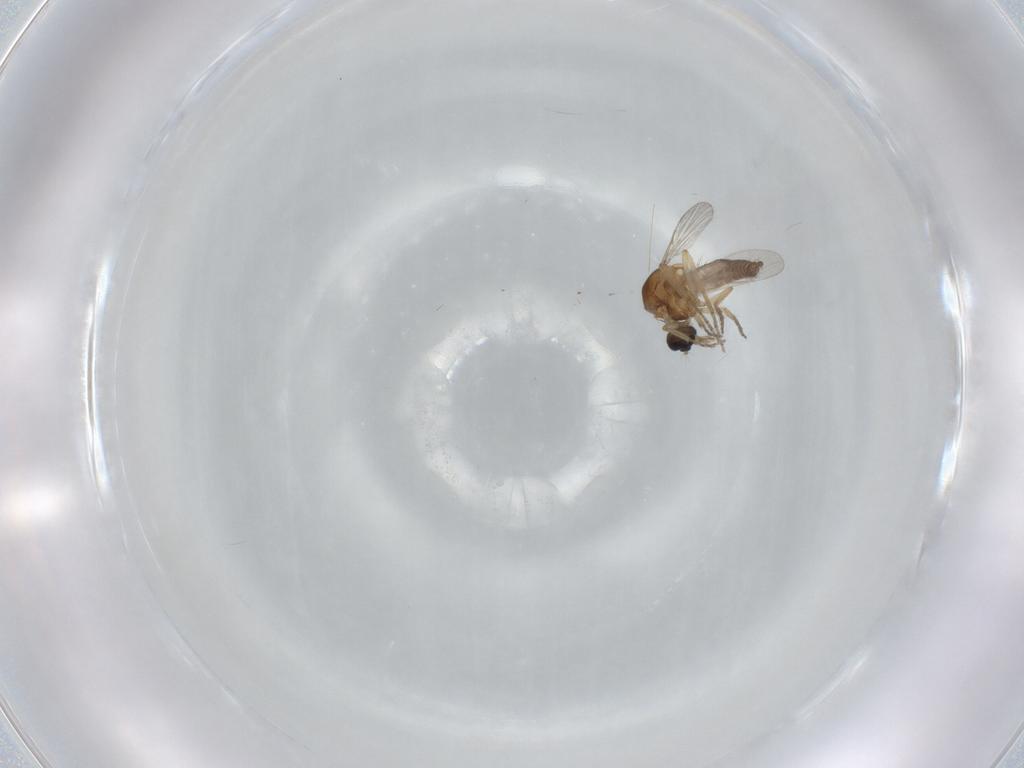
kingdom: Animalia
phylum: Arthropoda
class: Insecta
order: Diptera
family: Ceratopogonidae
